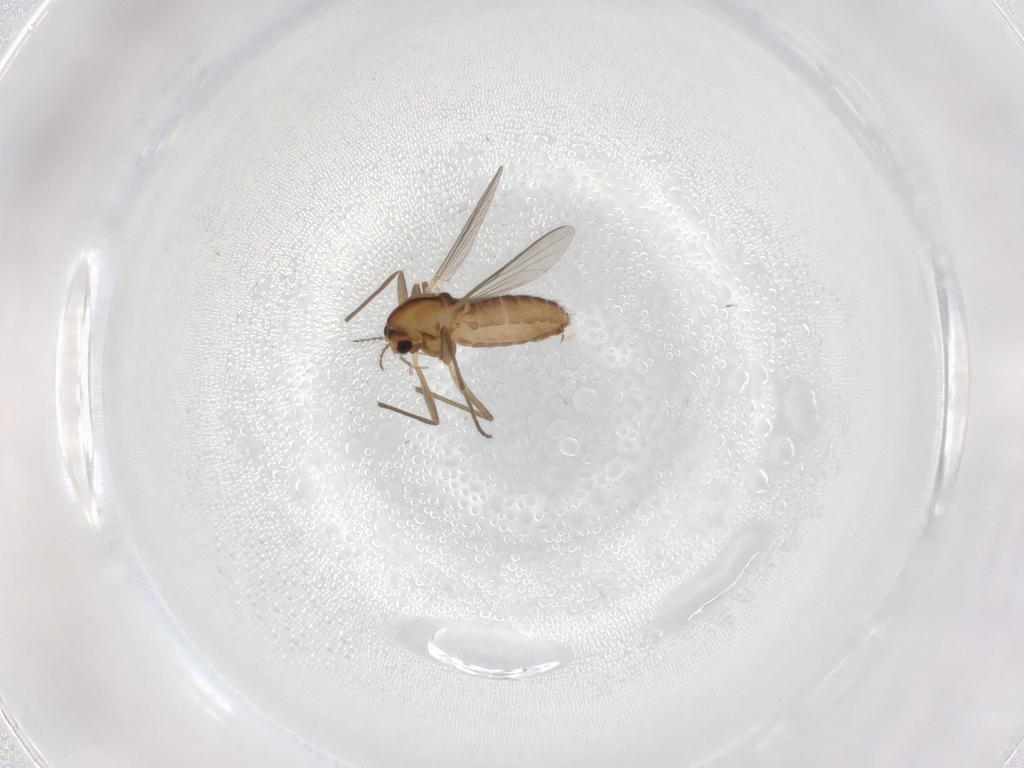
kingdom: Animalia
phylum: Arthropoda
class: Insecta
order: Diptera
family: Chironomidae
